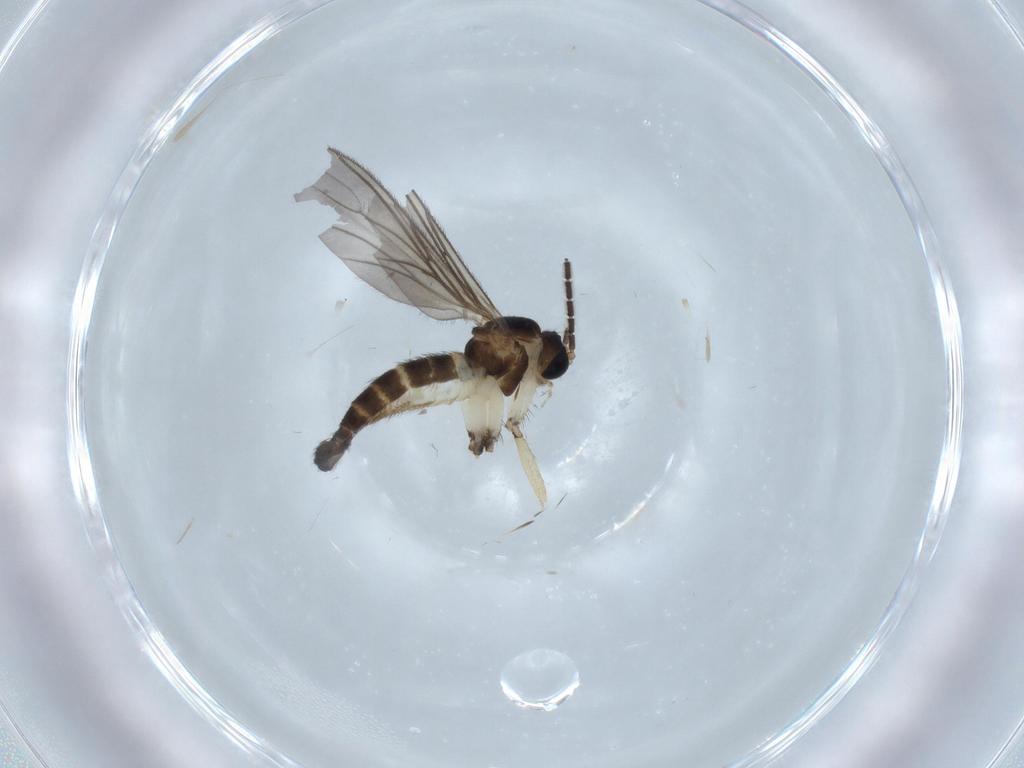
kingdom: Animalia
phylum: Arthropoda
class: Insecta
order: Diptera
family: Sciaridae
